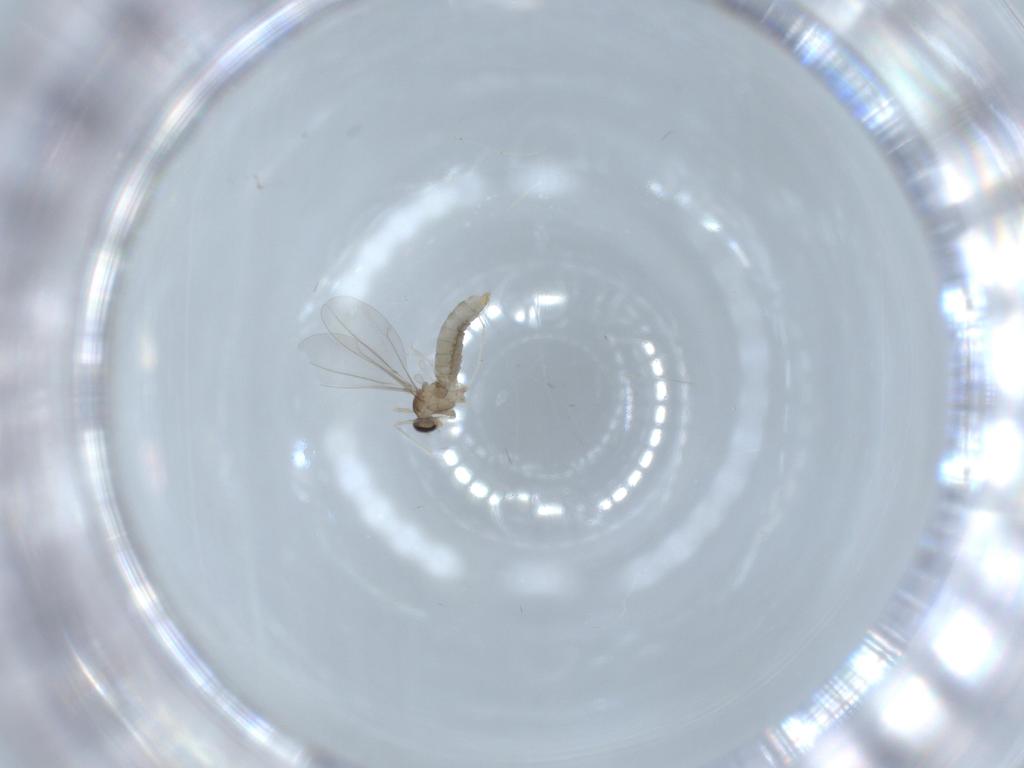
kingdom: Animalia
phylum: Arthropoda
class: Insecta
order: Diptera
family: Cecidomyiidae
